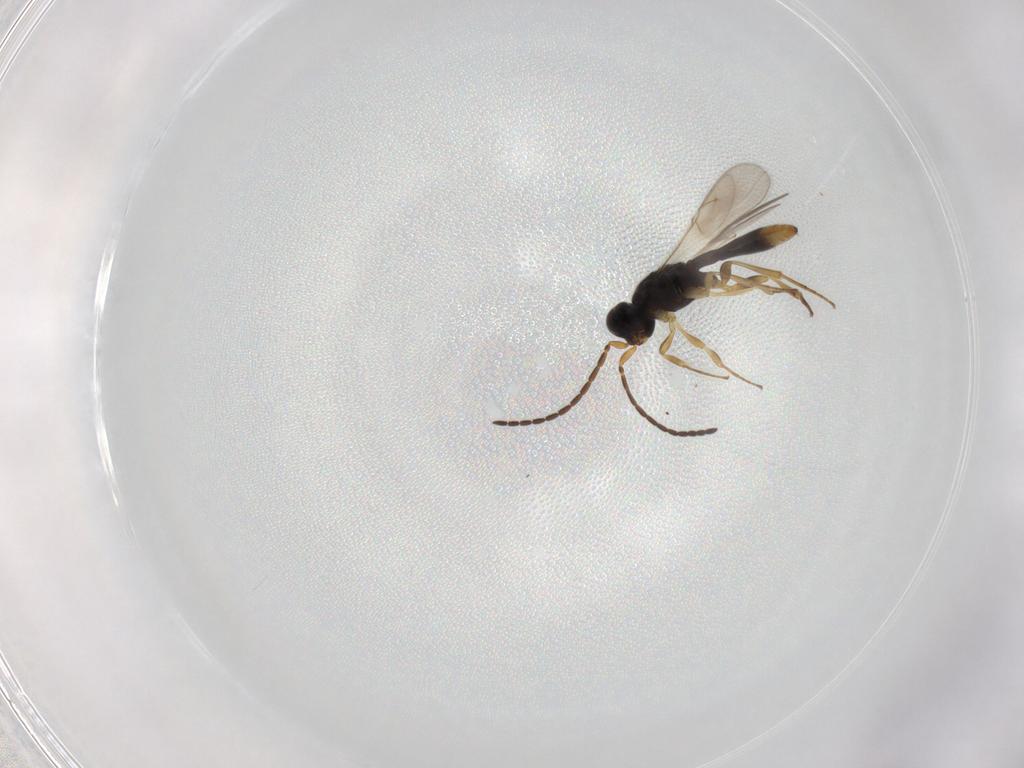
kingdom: Animalia
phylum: Arthropoda
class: Insecta
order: Hymenoptera
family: Scelionidae
